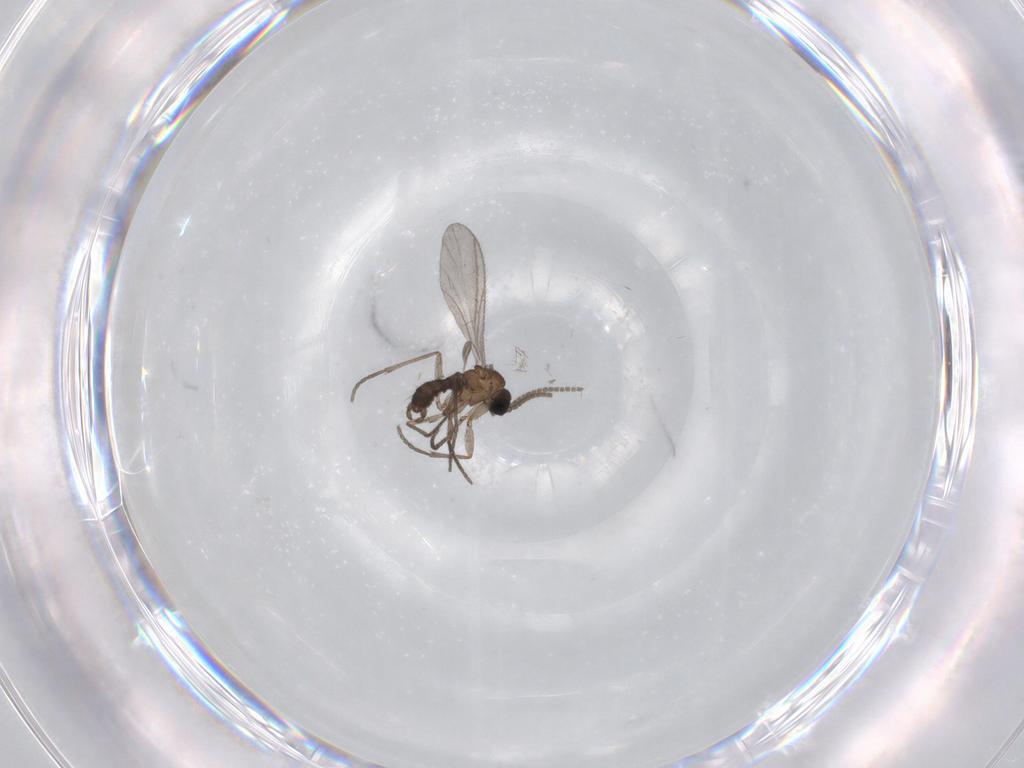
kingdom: Animalia
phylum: Arthropoda
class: Insecta
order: Diptera
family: Sciaridae
